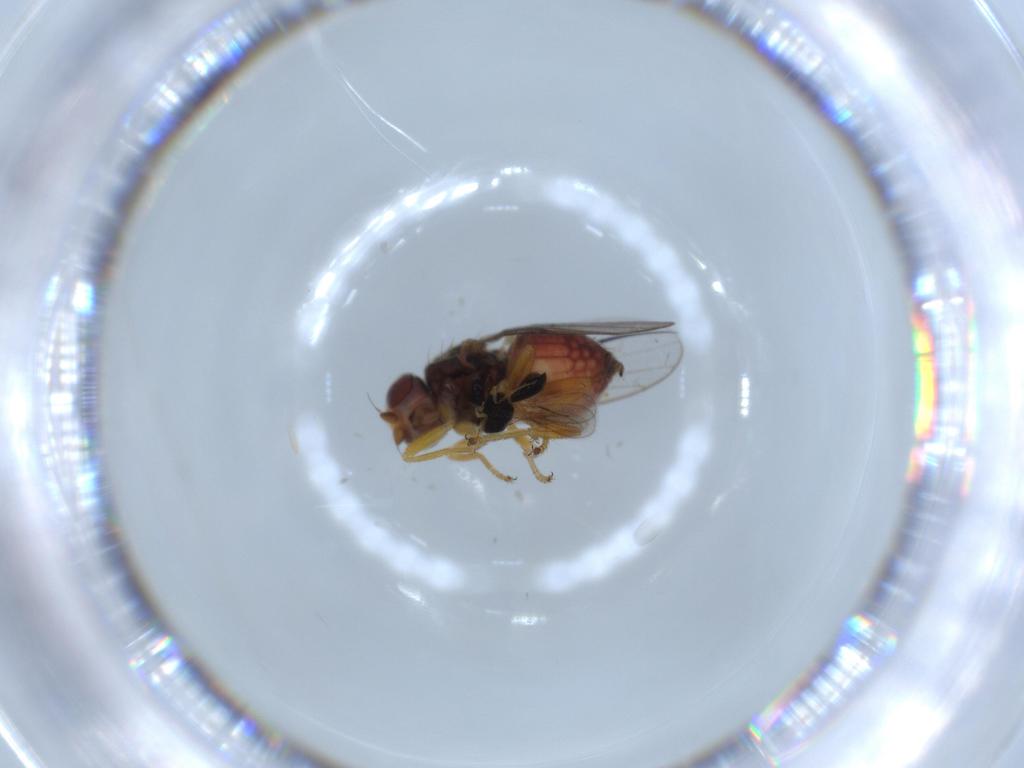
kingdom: Animalia
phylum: Arthropoda
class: Insecta
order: Diptera
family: Chloropidae
